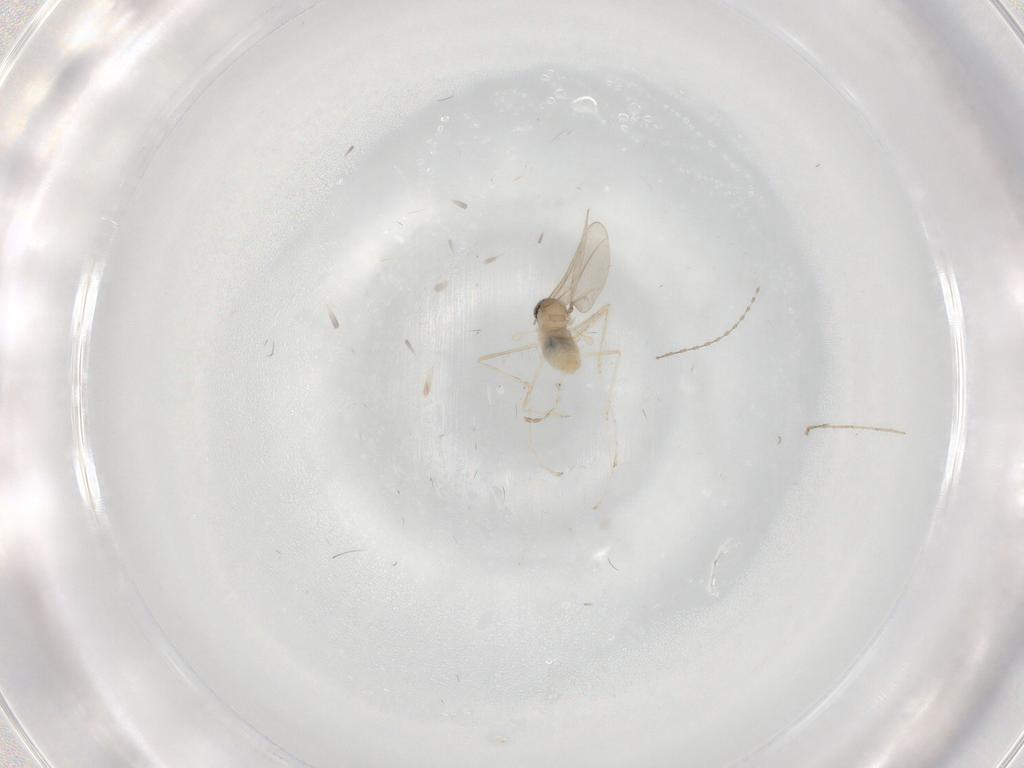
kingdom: Animalia
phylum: Arthropoda
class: Insecta
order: Diptera
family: Cecidomyiidae
